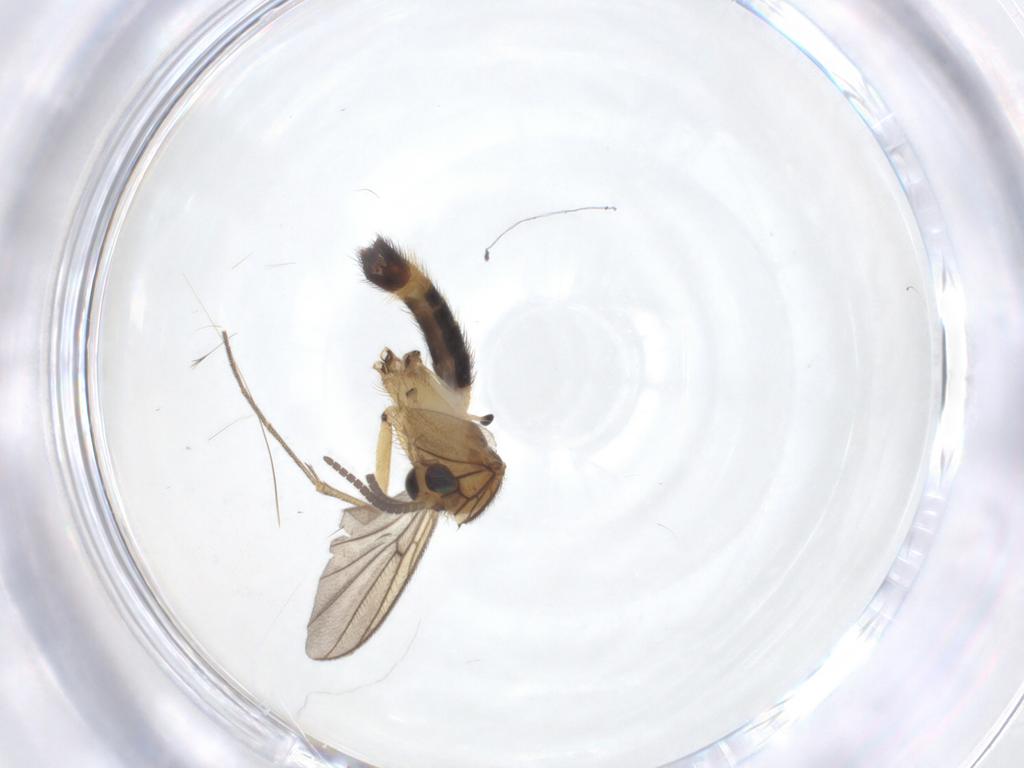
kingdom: Animalia
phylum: Arthropoda
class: Insecta
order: Diptera
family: Mycetophilidae
